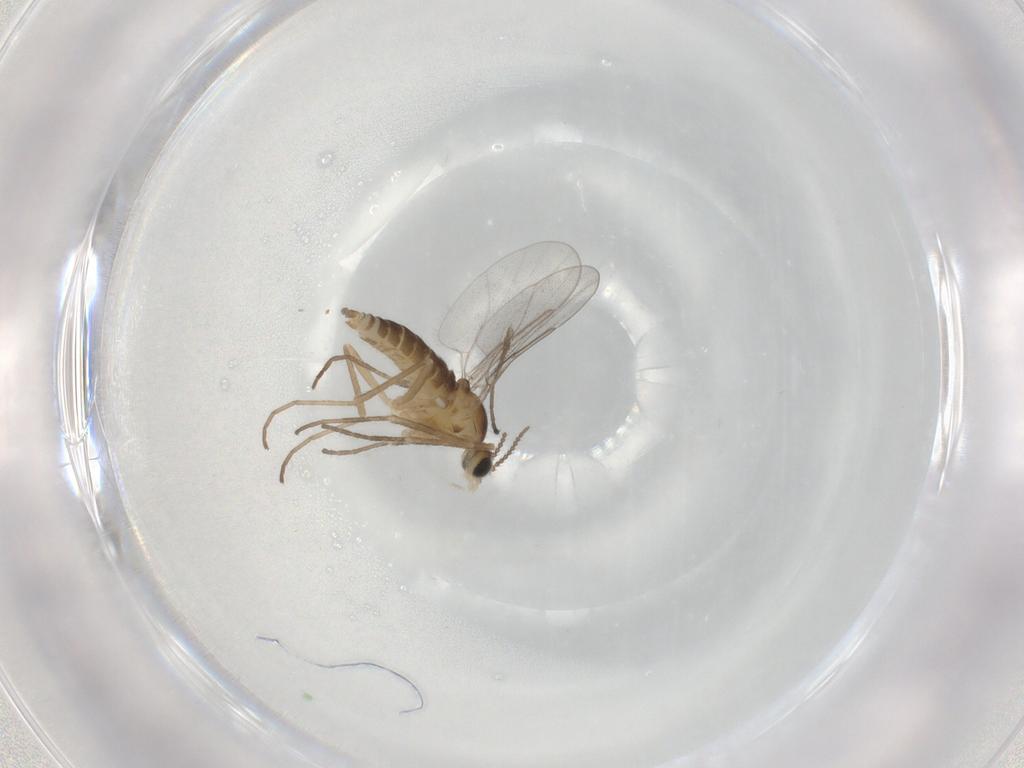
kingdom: Animalia
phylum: Arthropoda
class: Insecta
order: Diptera
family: Cecidomyiidae
